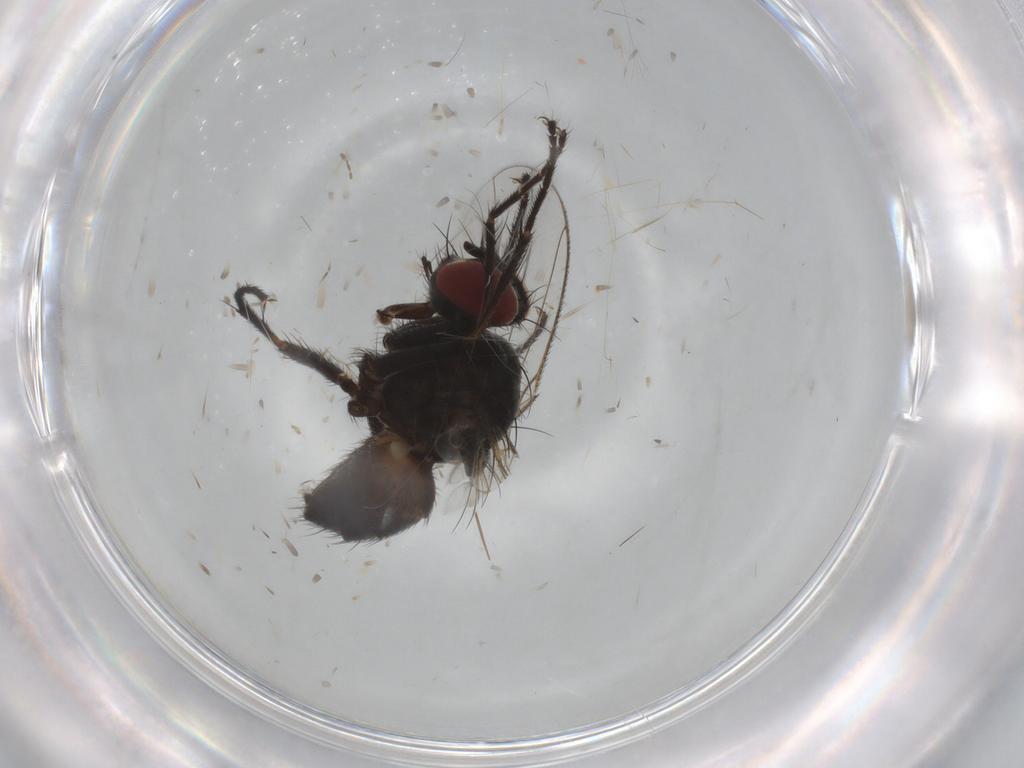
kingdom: Animalia
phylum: Arthropoda
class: Insecta
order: Diptera
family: Muscidae
